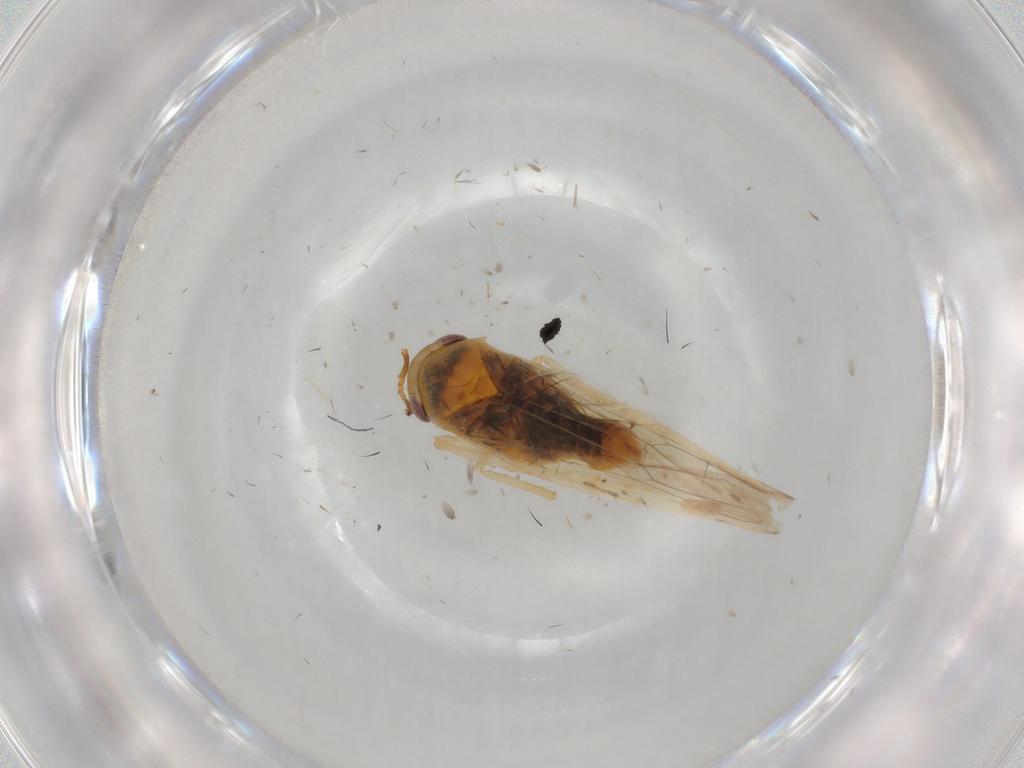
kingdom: Animalia
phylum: Arthropoda
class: Insecta
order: Hemiptera
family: Cicadellidae
